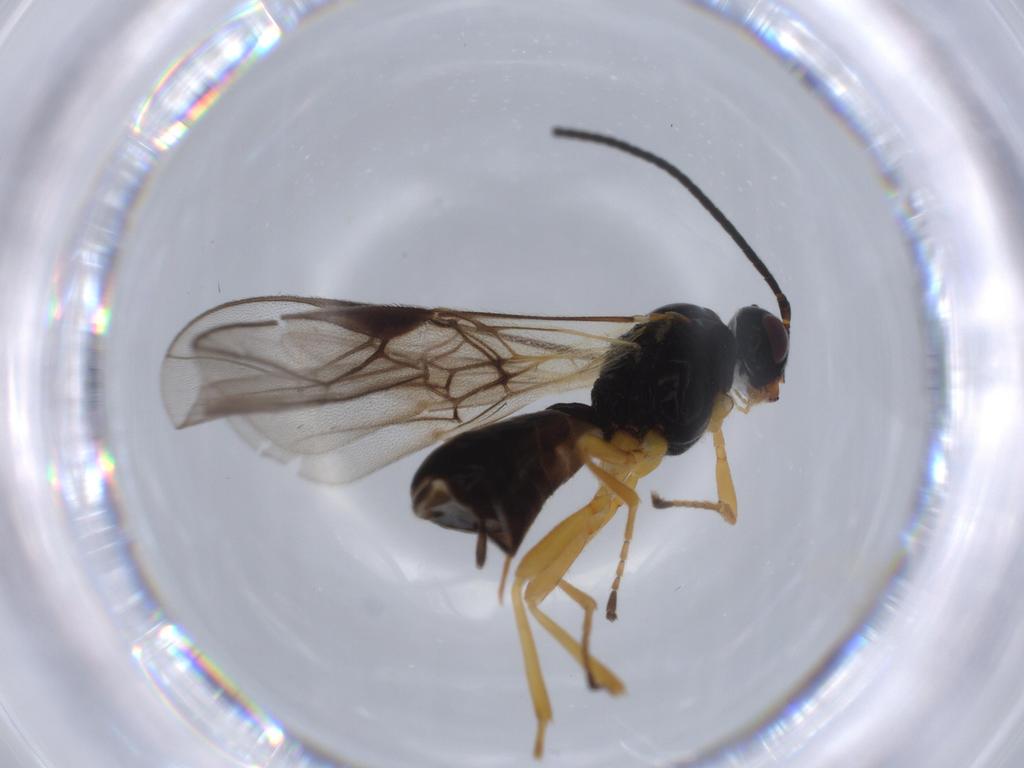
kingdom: Animalia
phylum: Arthropoda
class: Insecta
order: Hymenoptera
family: Braconidae
